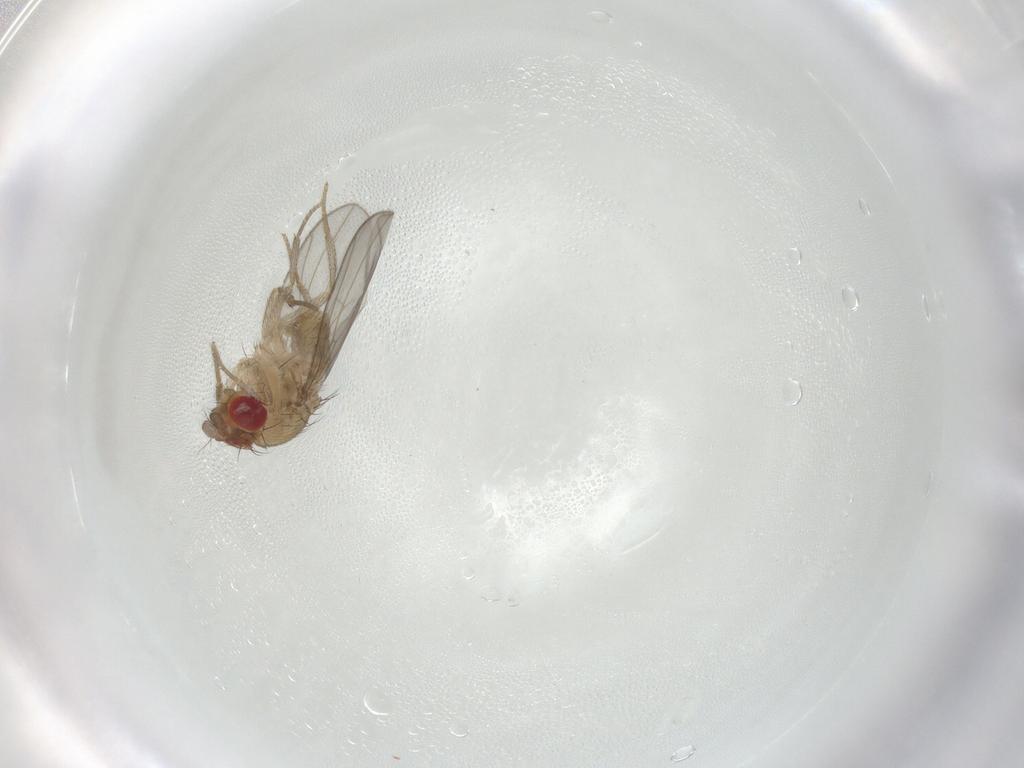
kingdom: Animalia
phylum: Arthropoda
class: Insecta
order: Diptera
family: Drosophilidae
